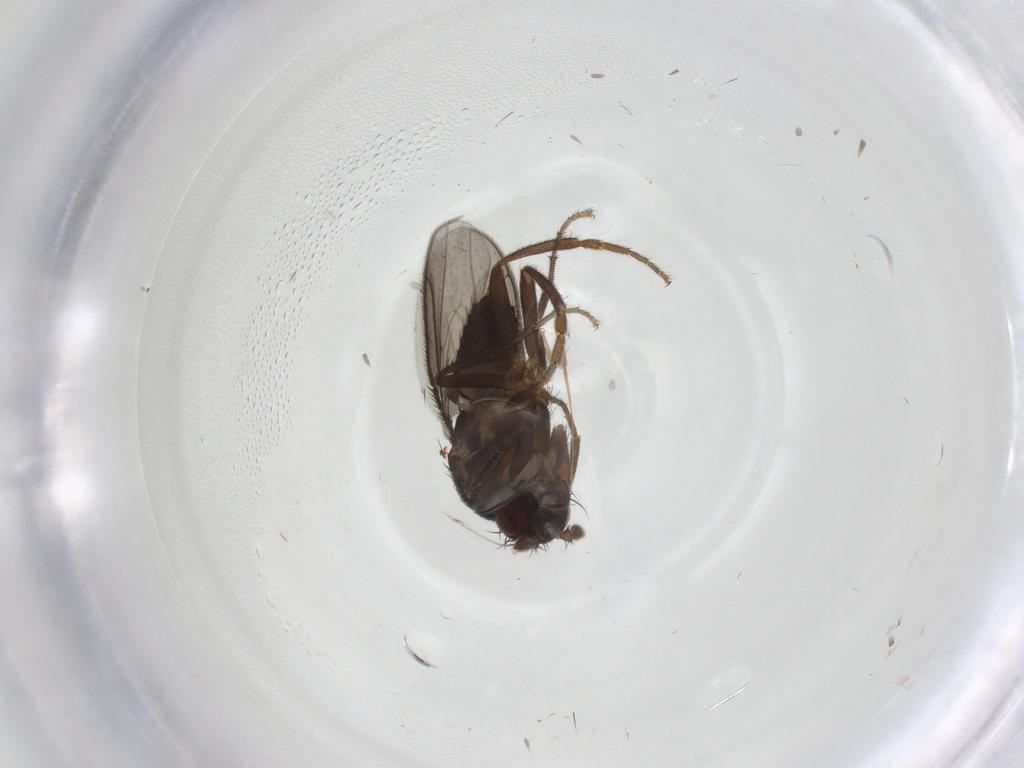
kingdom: Animalia
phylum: Arthropoda
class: Insecta
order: Diptera
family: Sphaeroceridae
